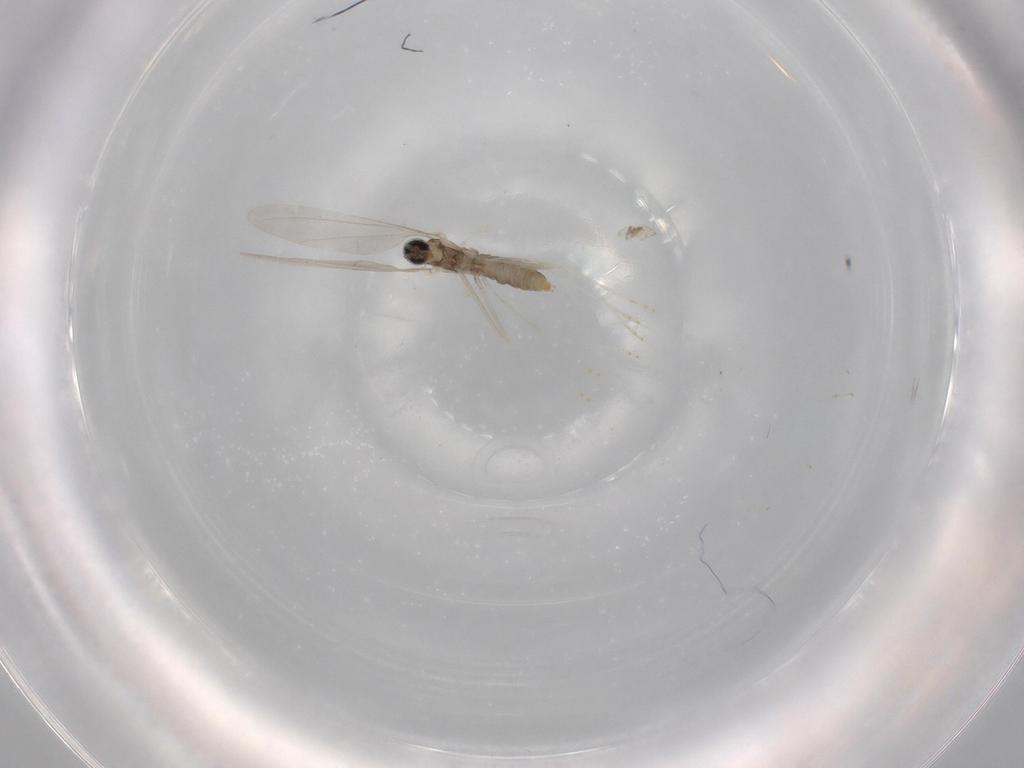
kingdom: Animalia
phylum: Arthropoda
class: Insecta
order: Diptera
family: Cecidomyiidae
